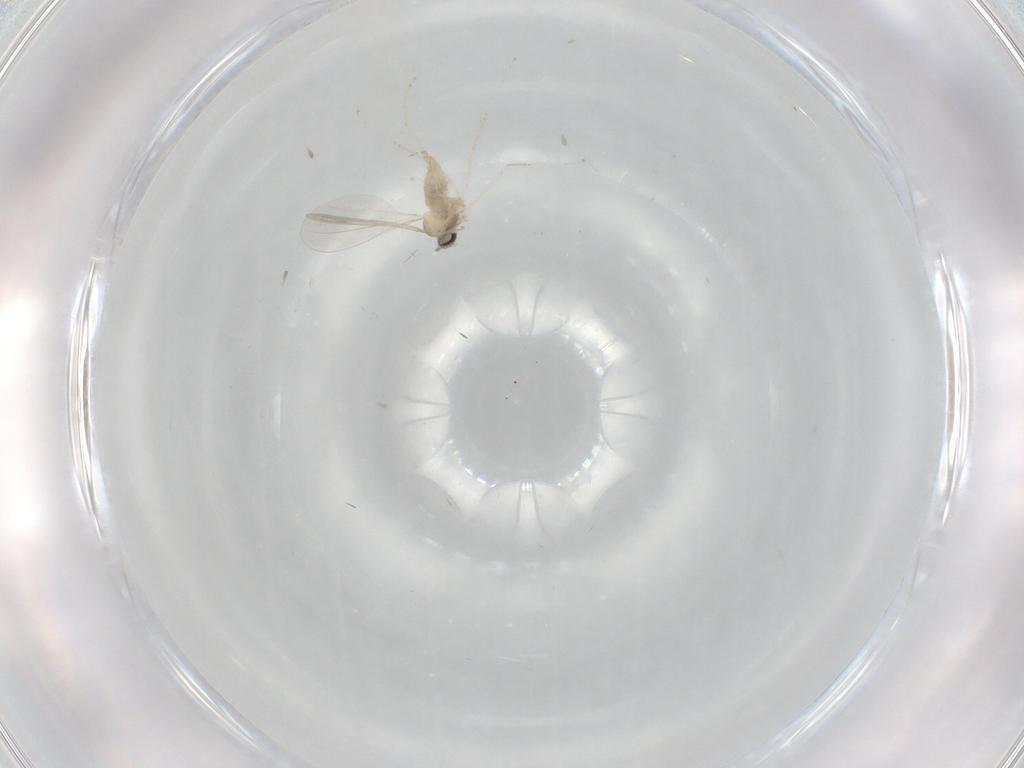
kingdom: Animalia
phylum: Arthropoda
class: Insecta
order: Diptera
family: Cecidomyiidae
